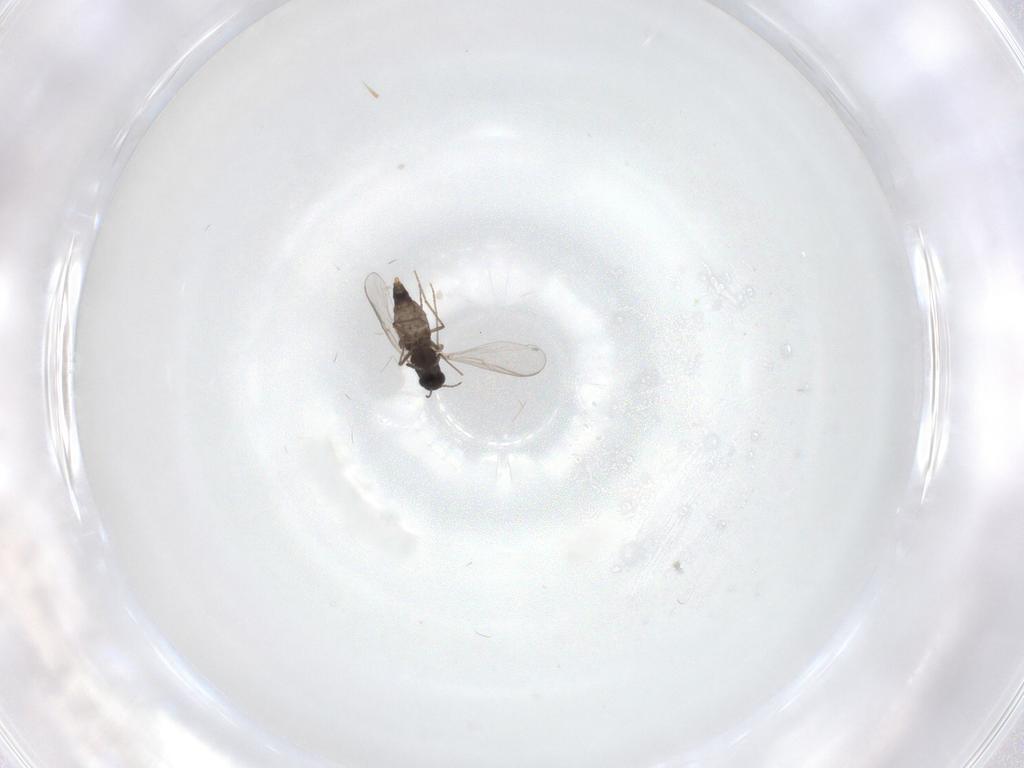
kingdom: Animalia
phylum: Arthropoda
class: Insecta
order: Diptera
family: Chironomidae
